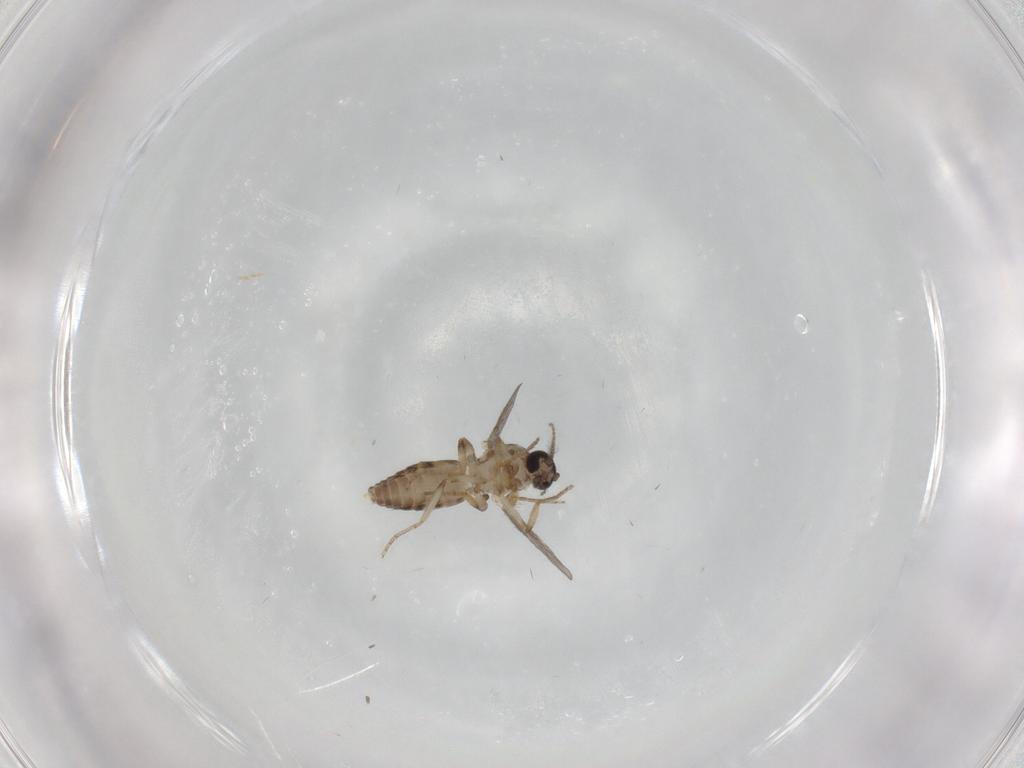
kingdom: Animalia
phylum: Arthropoda
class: Insecta
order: Diptera
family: Ceratopogonidae
